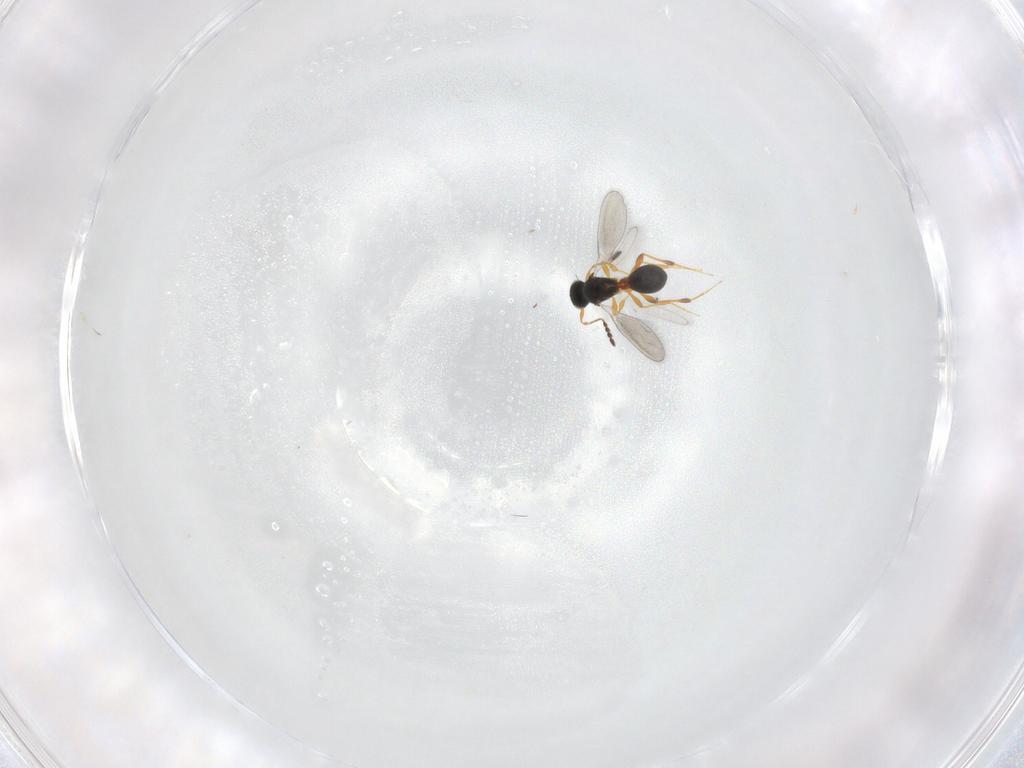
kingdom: Animalia
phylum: Arthropoda
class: Insecta
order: Hymenoptera
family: Platygastridae
